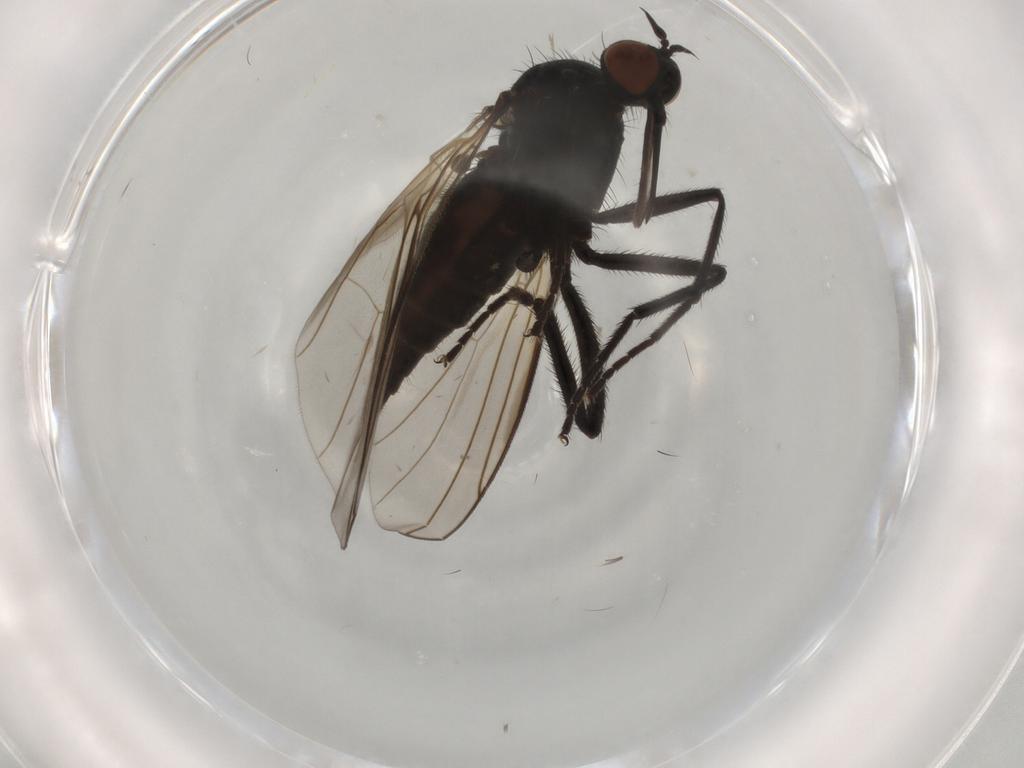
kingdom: Animalia
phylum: Arthropoda
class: Insecta
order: Diptera
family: Empididae
